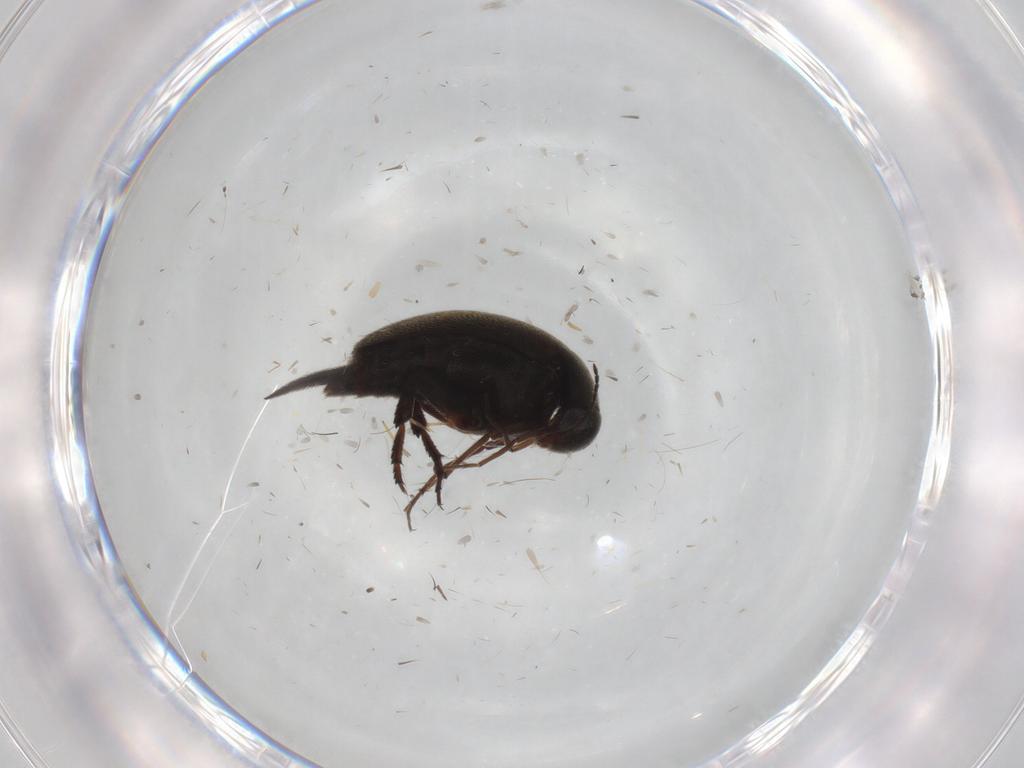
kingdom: Animalia
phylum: Arthropoda
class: Insecta
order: Coleoptera
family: Mordellidae
